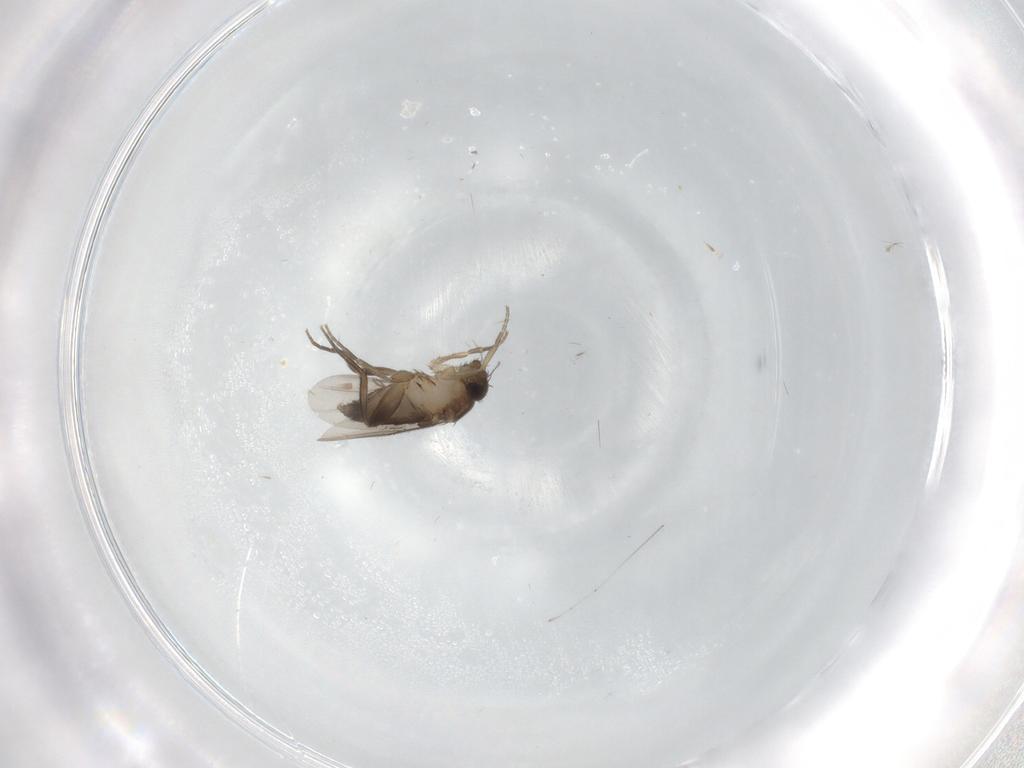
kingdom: Animalia
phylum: Arthropoda
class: Insecta
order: Diptera
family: Phoridae
